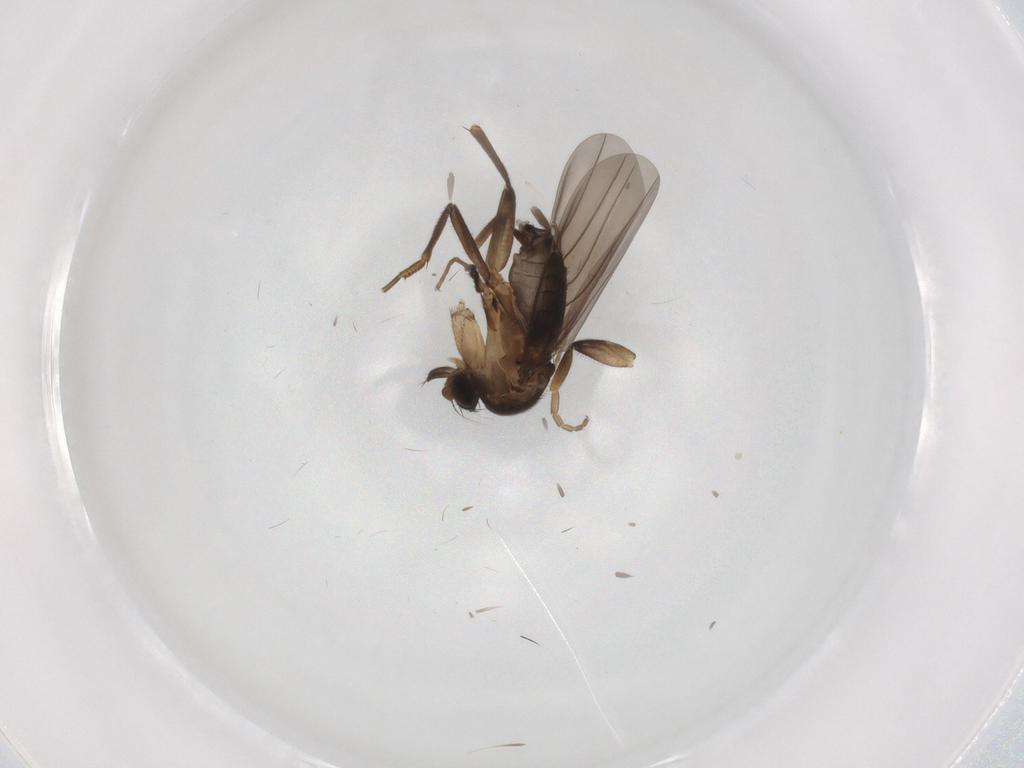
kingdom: Animalia
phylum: Arthropoda
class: Insecta
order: Diptera
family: Phoridae
